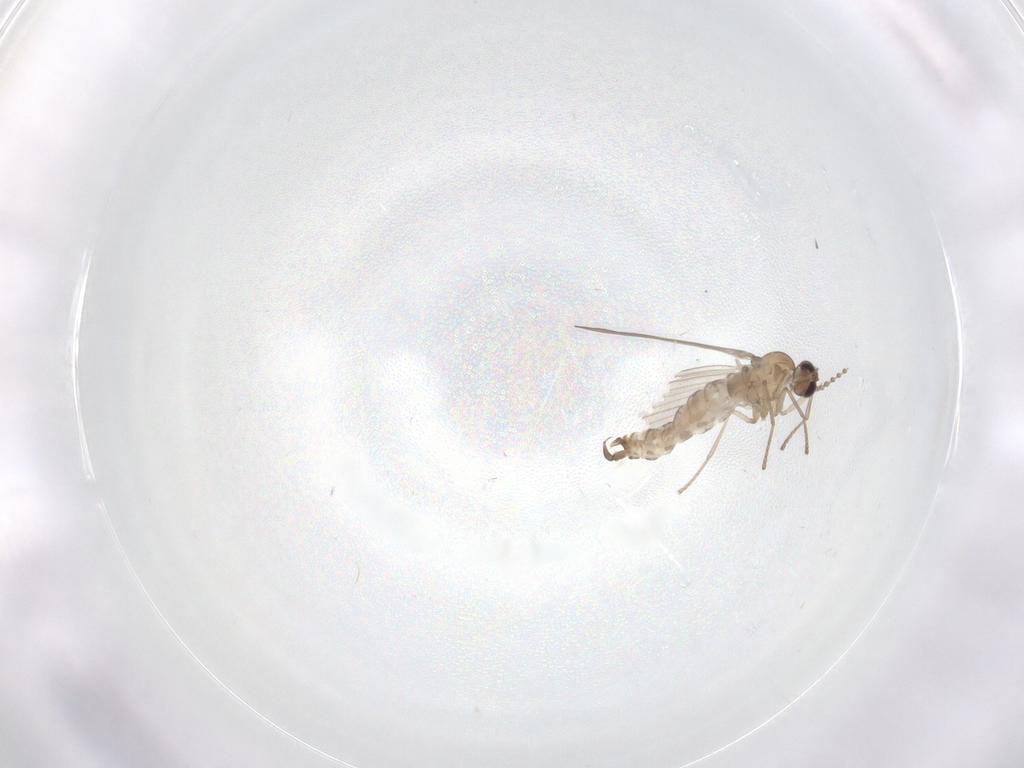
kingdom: Animalia
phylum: Arthropoda
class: Insecta
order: Diptera
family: Psychodidae
